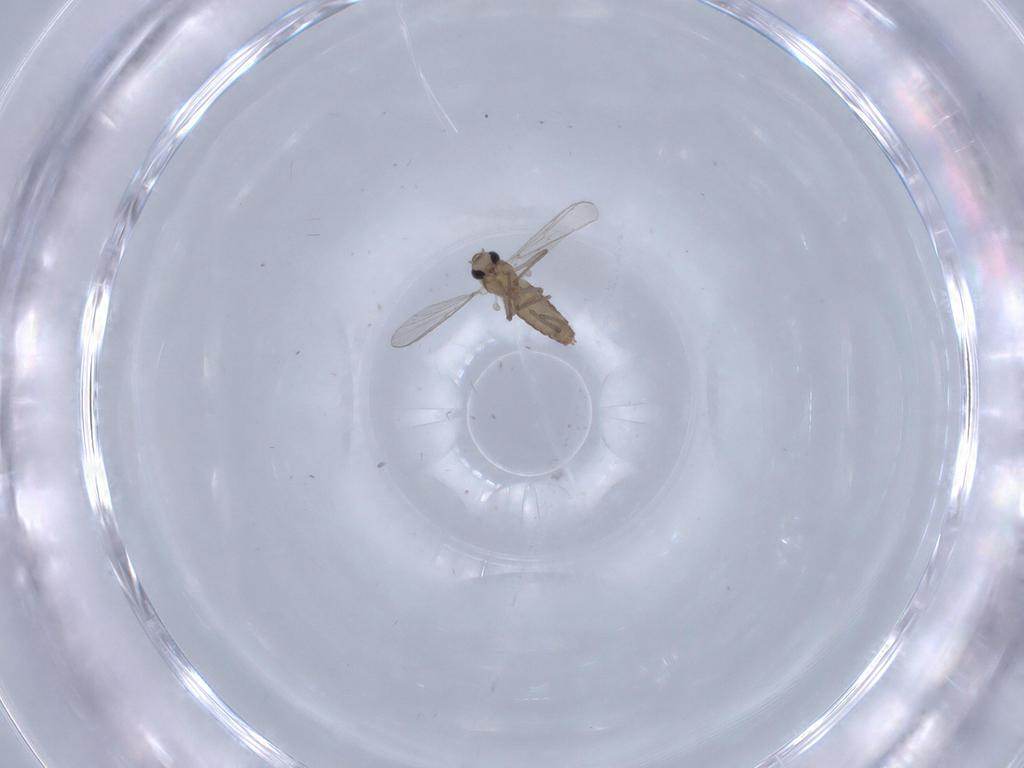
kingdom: Animalia
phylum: Arthropoda
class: Insecta
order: Diptera
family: Chironomidae
